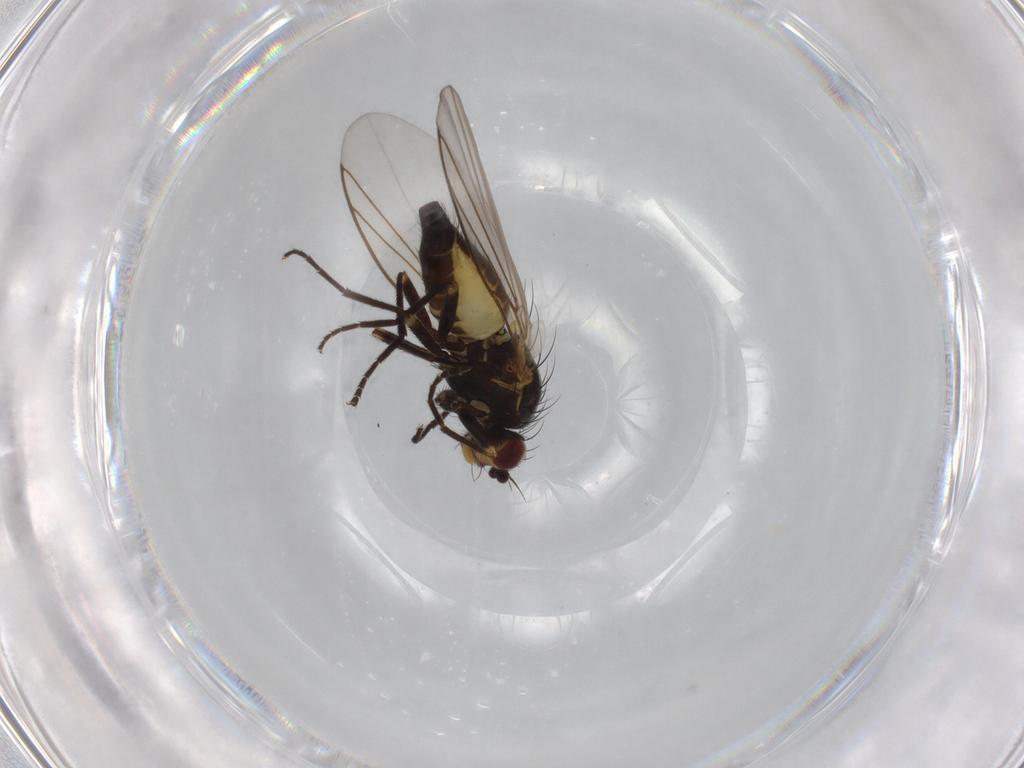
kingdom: Animalia
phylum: Arthropoda
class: Insecta
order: Diptera
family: Agromyzidae
